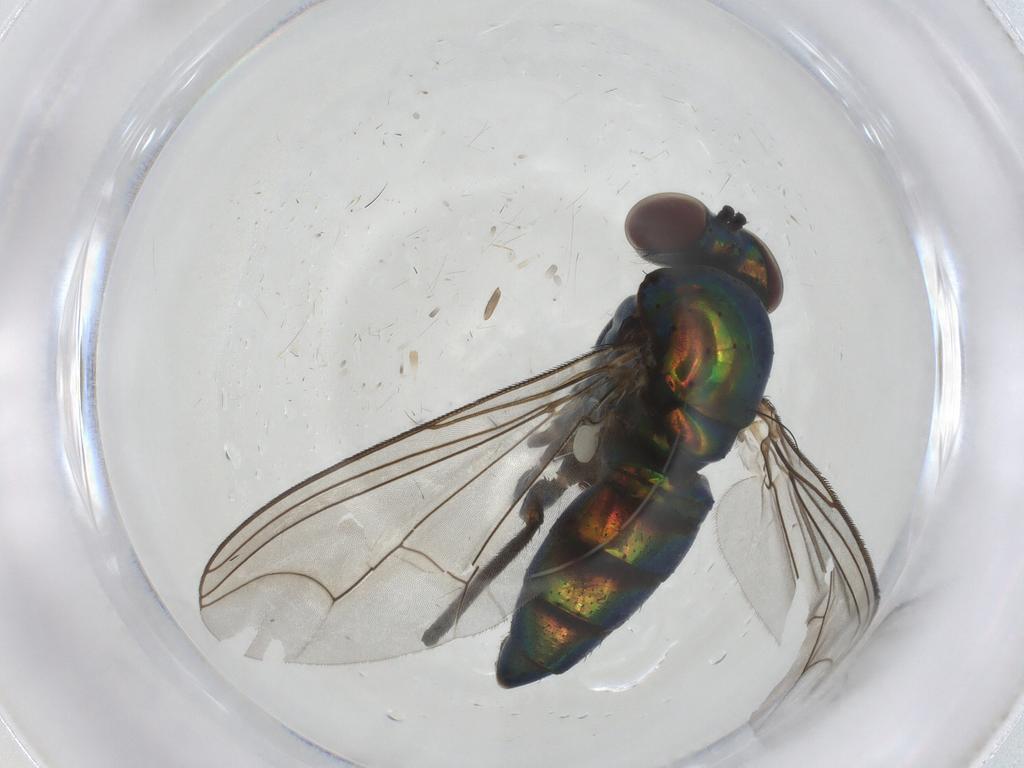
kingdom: Animalia
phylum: Arthropoda
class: Insecta
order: Diptera
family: Dolichopodidae
